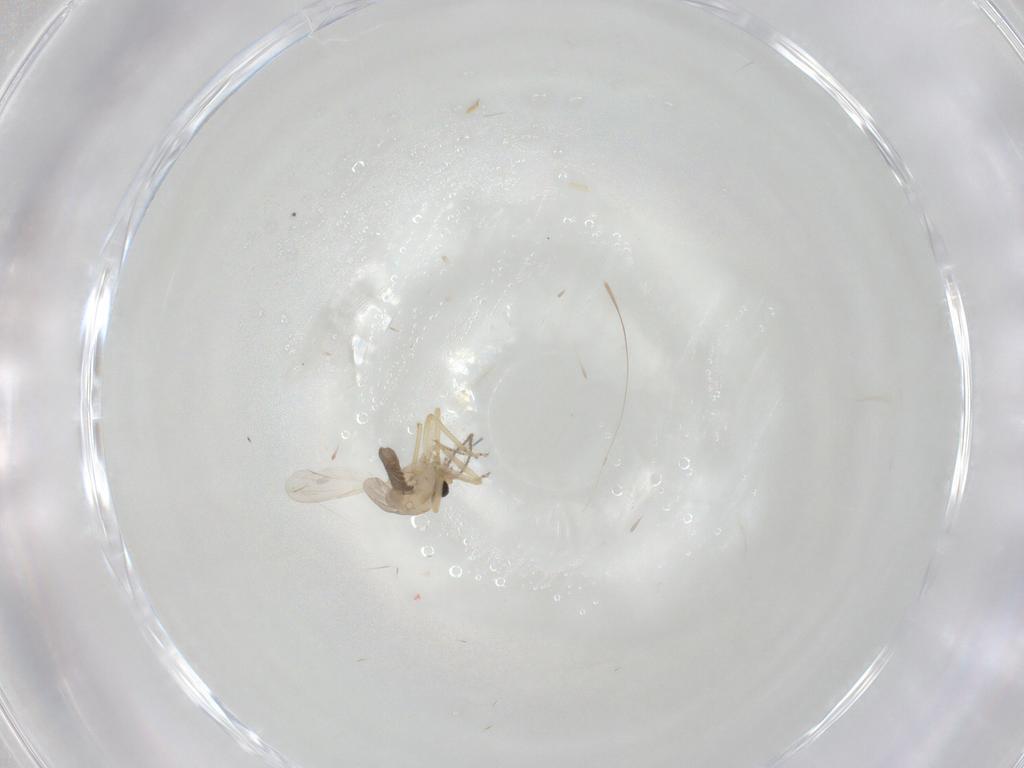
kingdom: Animalia
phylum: Arthropoda
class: Insecta
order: Diptera
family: Ceratopogonidae
